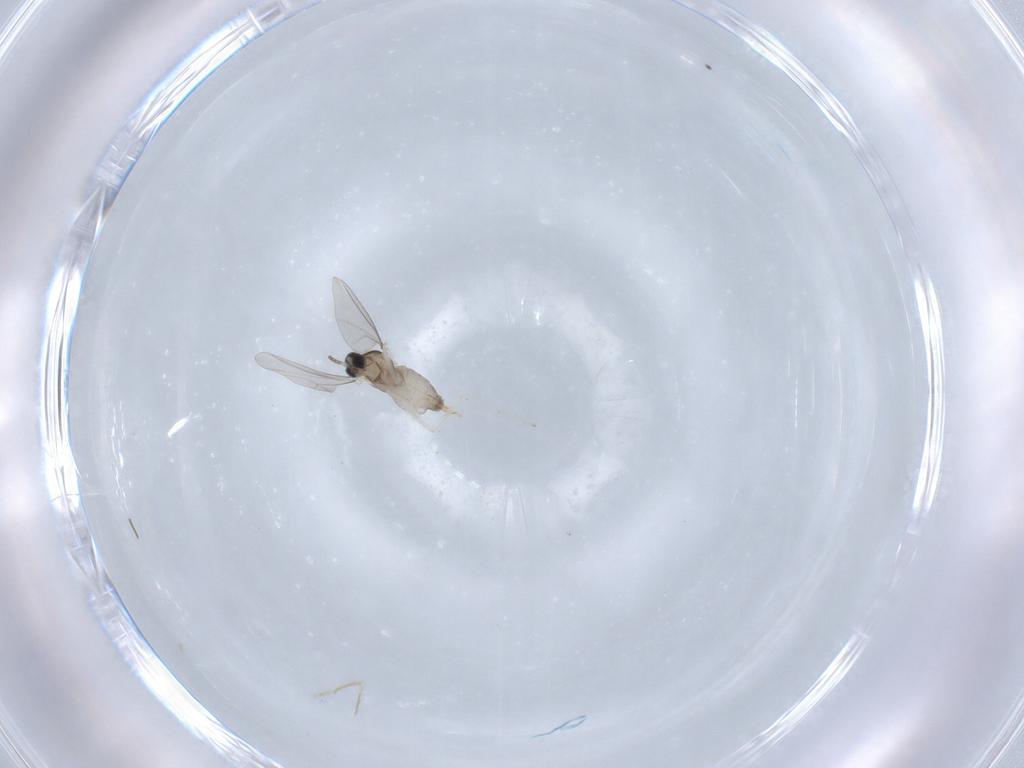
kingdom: Animalia
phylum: Arthropoda
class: Insecta
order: Diptera
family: Cecidomyiidae
